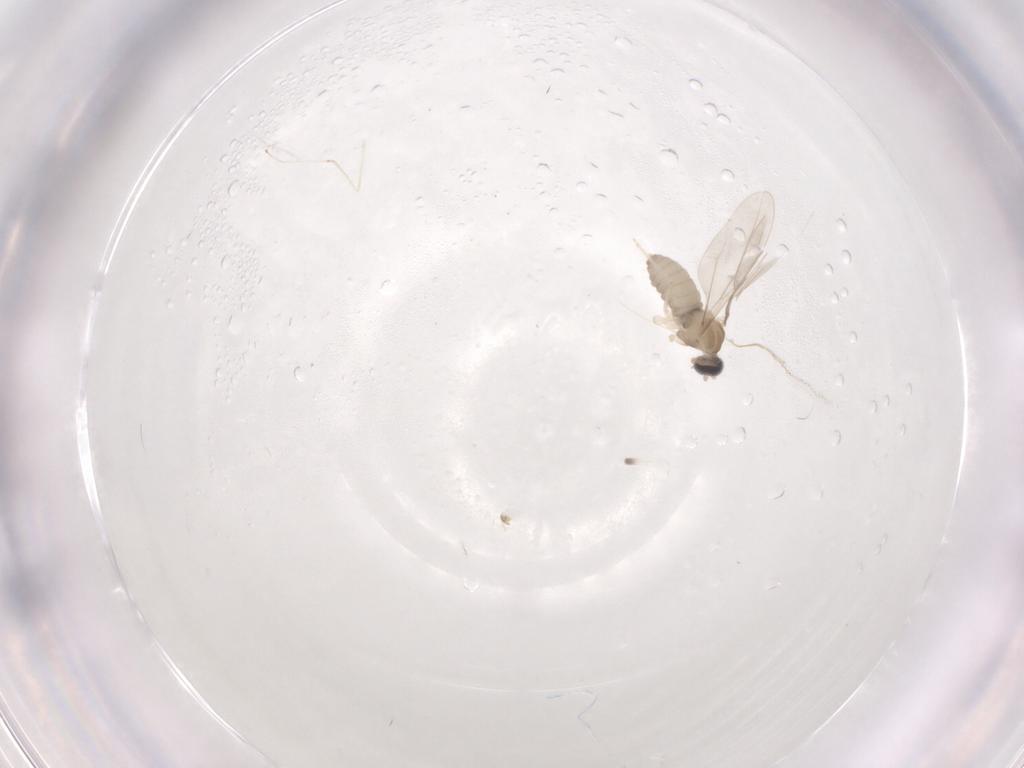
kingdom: Animalia
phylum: Arthropoda
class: Insecta
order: Diptera
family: Cecidomyiidae
